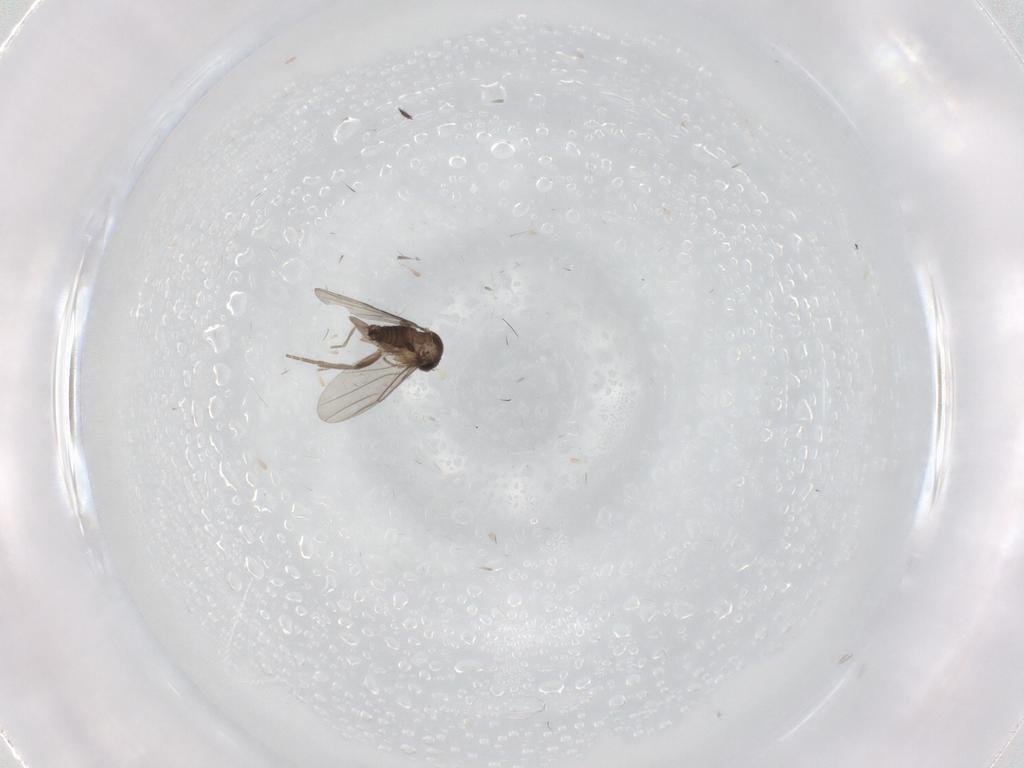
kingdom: Animalia
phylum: Arthropoda
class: Insecta
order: Diptera
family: Phoridae
